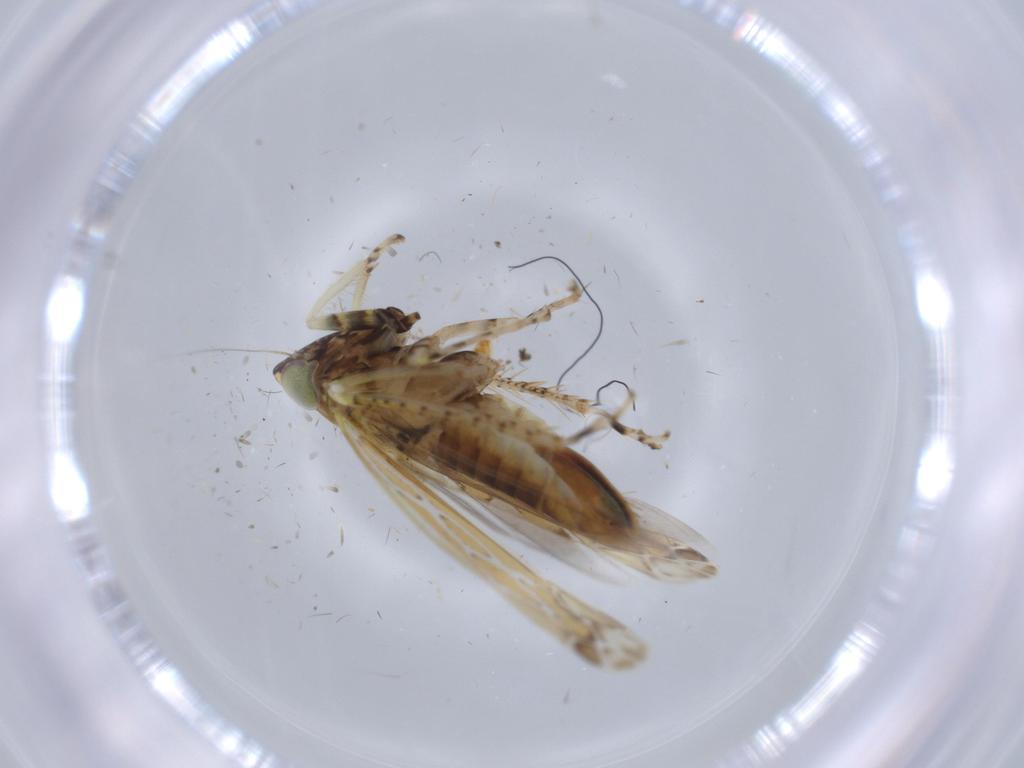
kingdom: Animalia
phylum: Arthropoda
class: Insecta
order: Hemiptera
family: Cicadellidae
